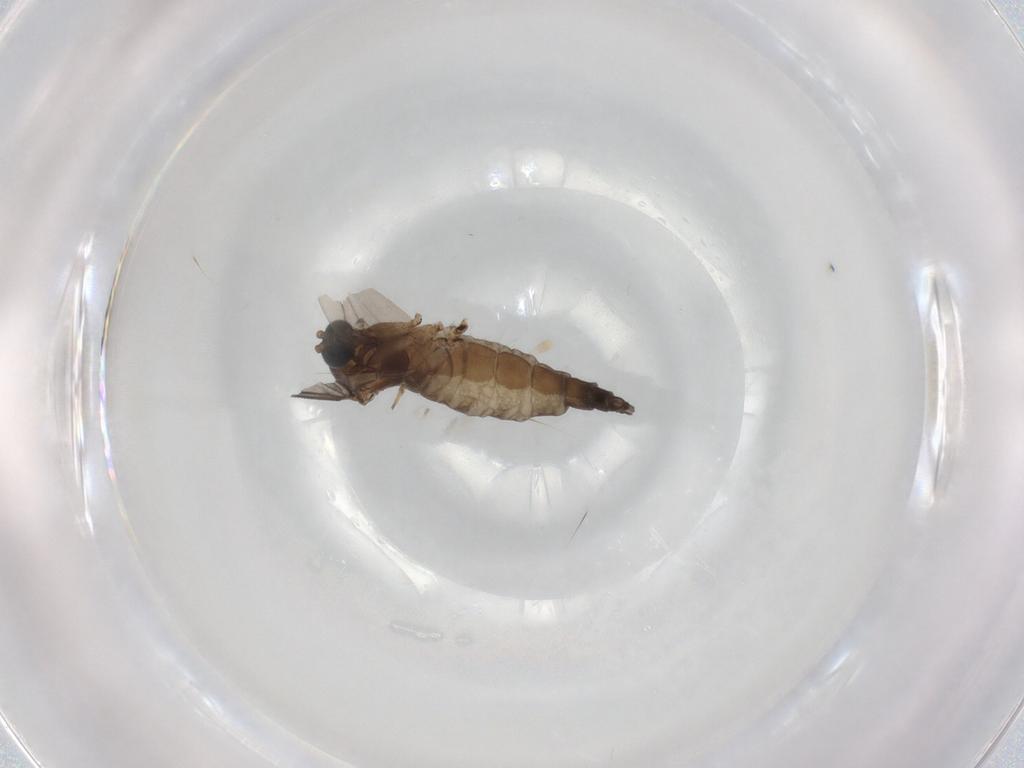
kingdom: Animalia
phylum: Arthropoda
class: Insecta
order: Diptera
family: Sciaridae
